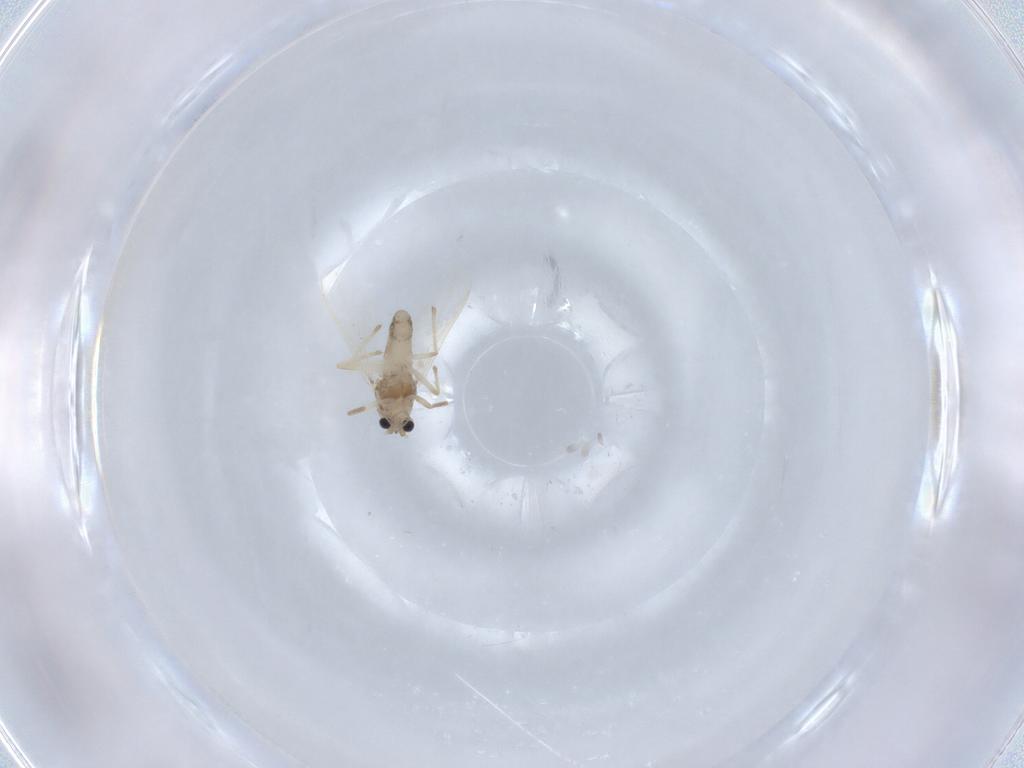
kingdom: Animalia
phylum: Arthropoda
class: Insecta
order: Diptera
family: Chironomidae
